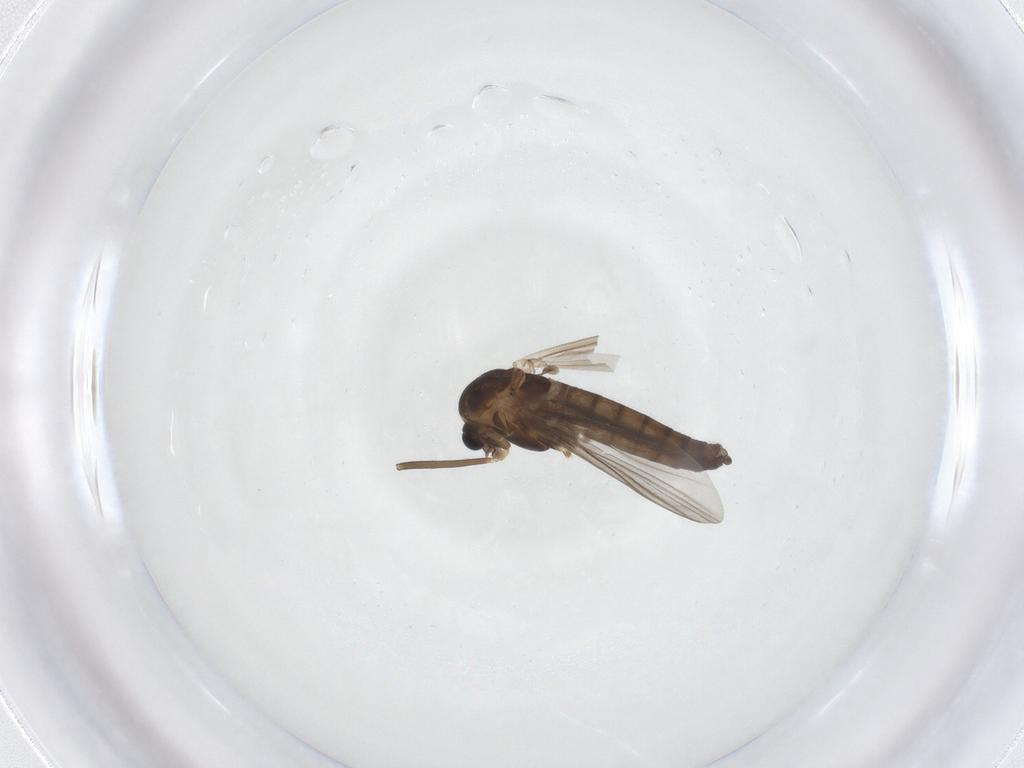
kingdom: Animalia
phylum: Arthropoda
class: Insecta
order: Diptera
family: Chironomidae
